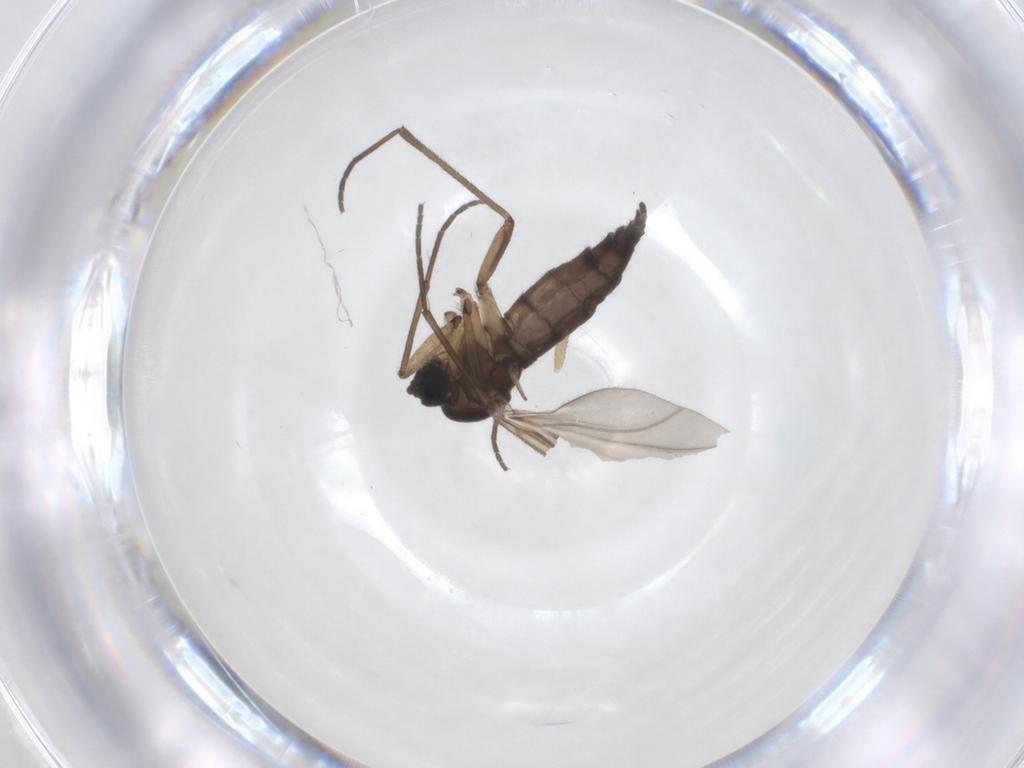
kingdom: Animalia
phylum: Arthropoda
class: Insecta
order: Diptera
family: Sciaridae
